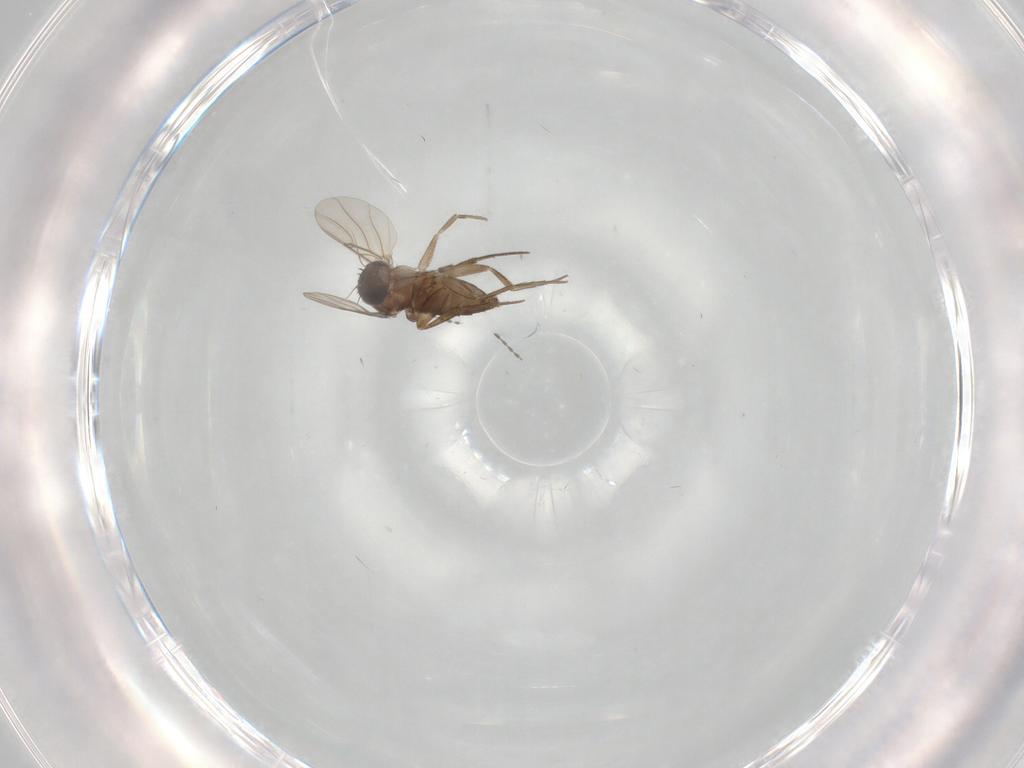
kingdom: Animalia
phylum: Arthropoda
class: Insecta
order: Diptera
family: Phoridae
